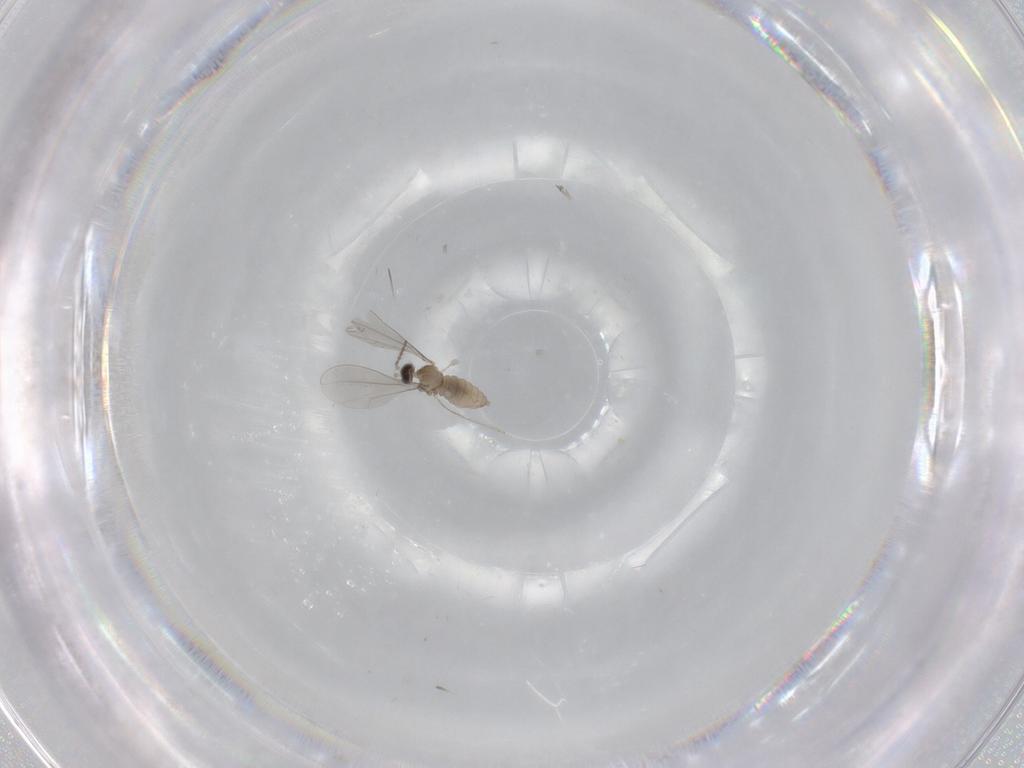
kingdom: Animalia
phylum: Arthropoda
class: Insecta
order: Diptera
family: Cecidomyiidae
